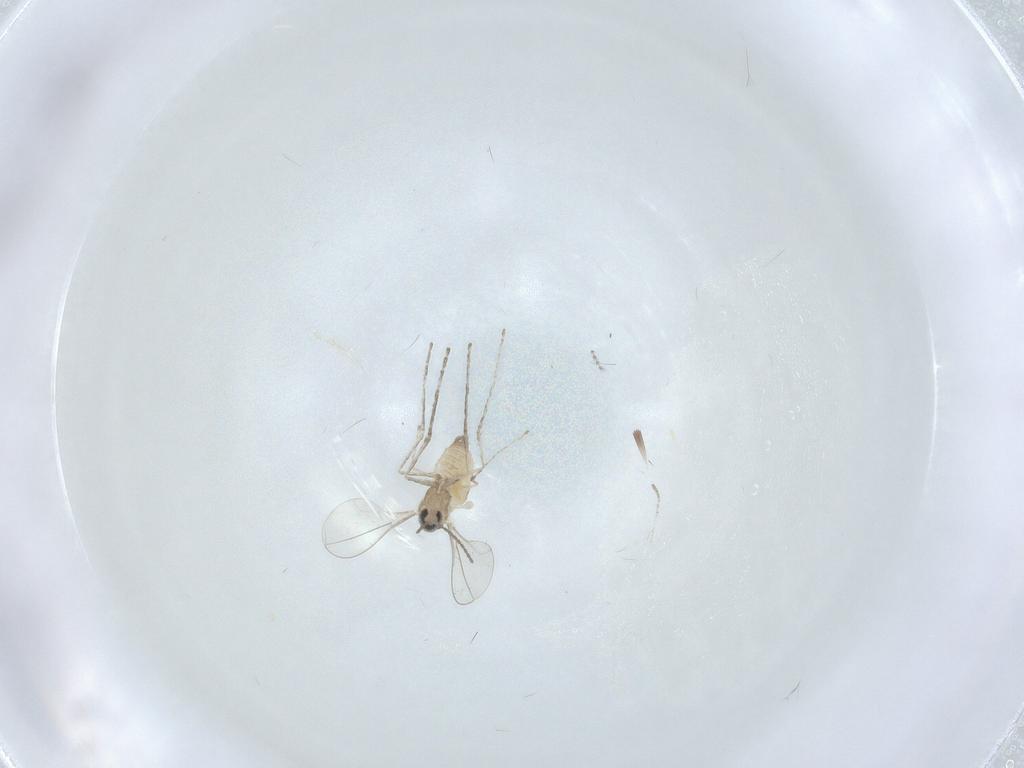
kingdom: Animalia
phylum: Arthropoda
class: Insecta
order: Diptera
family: Cecidomyiidae
